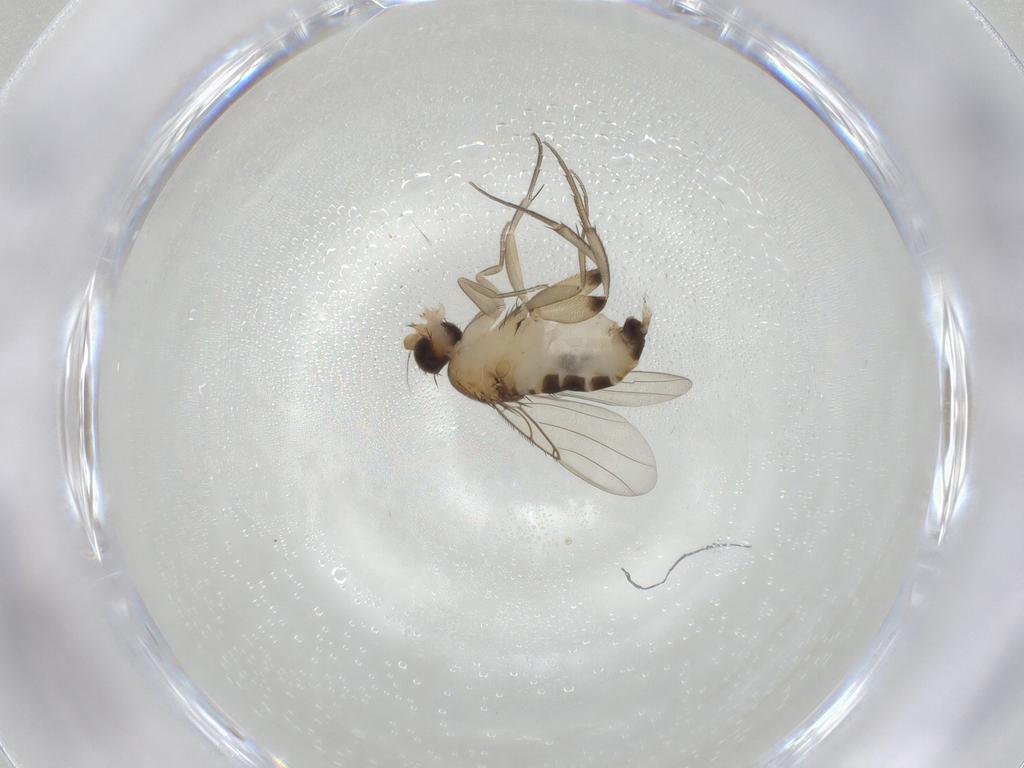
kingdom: Animalia
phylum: Arthropoda
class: Insecta
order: Diptera
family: Phoridae
